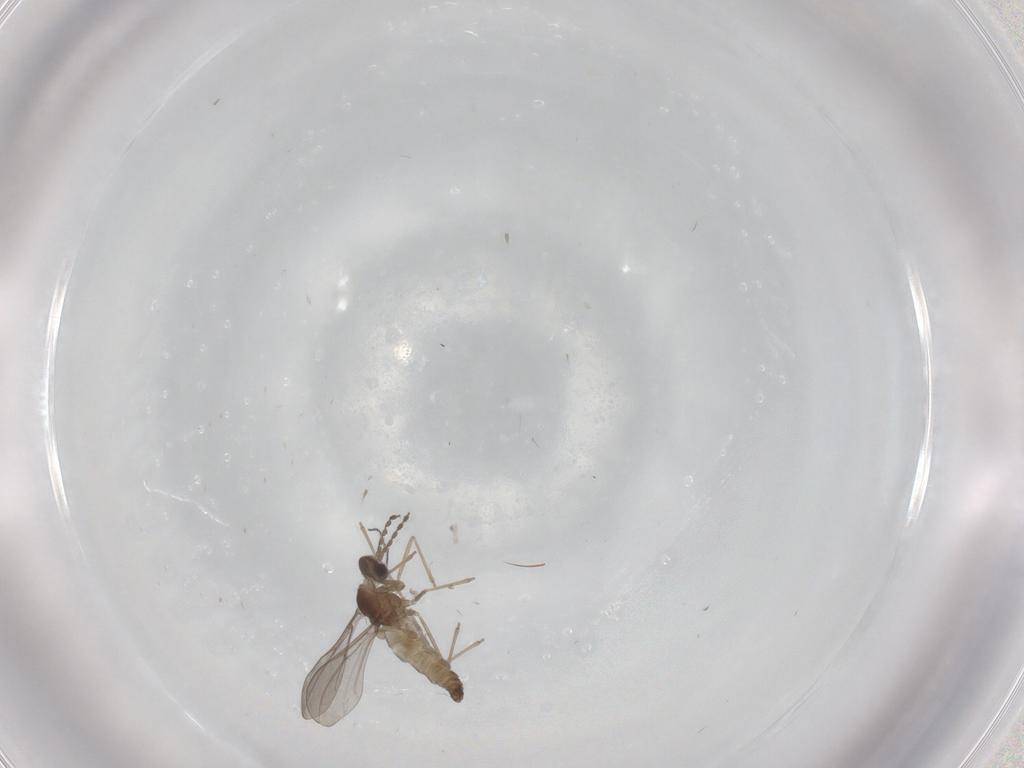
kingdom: Animalia
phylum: Arthropoda
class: Insecta
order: Diptera
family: Cecidomyiidae
